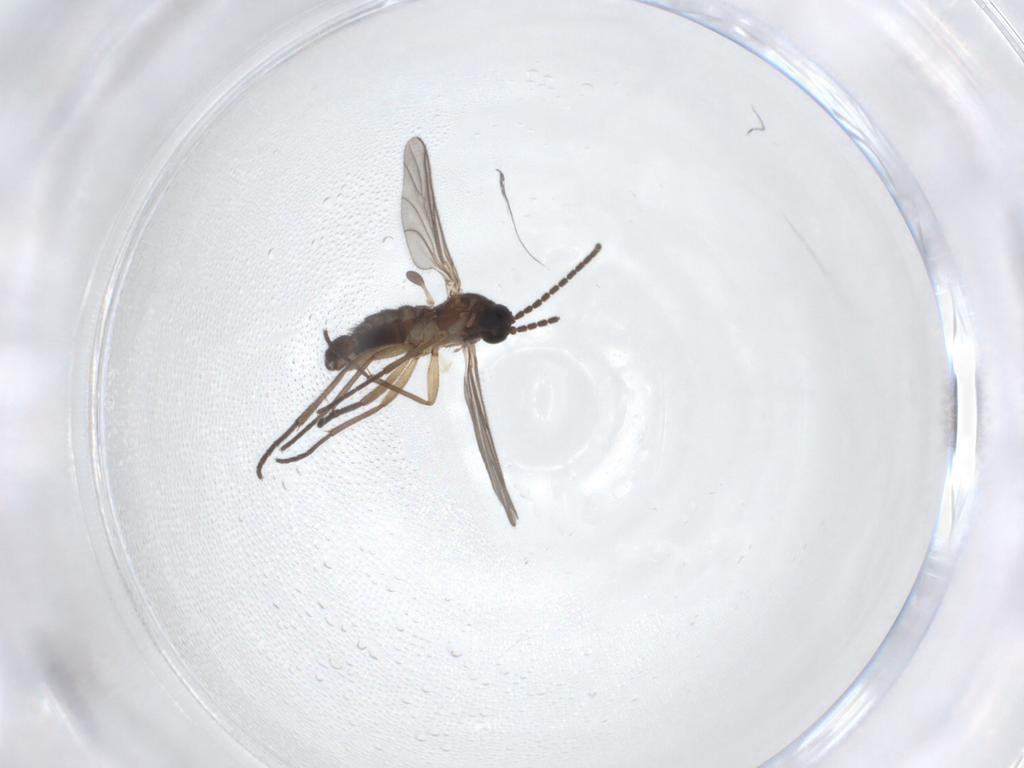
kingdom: Animalia
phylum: Arthropoda
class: Insecta
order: Diptera
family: Sciaridae
